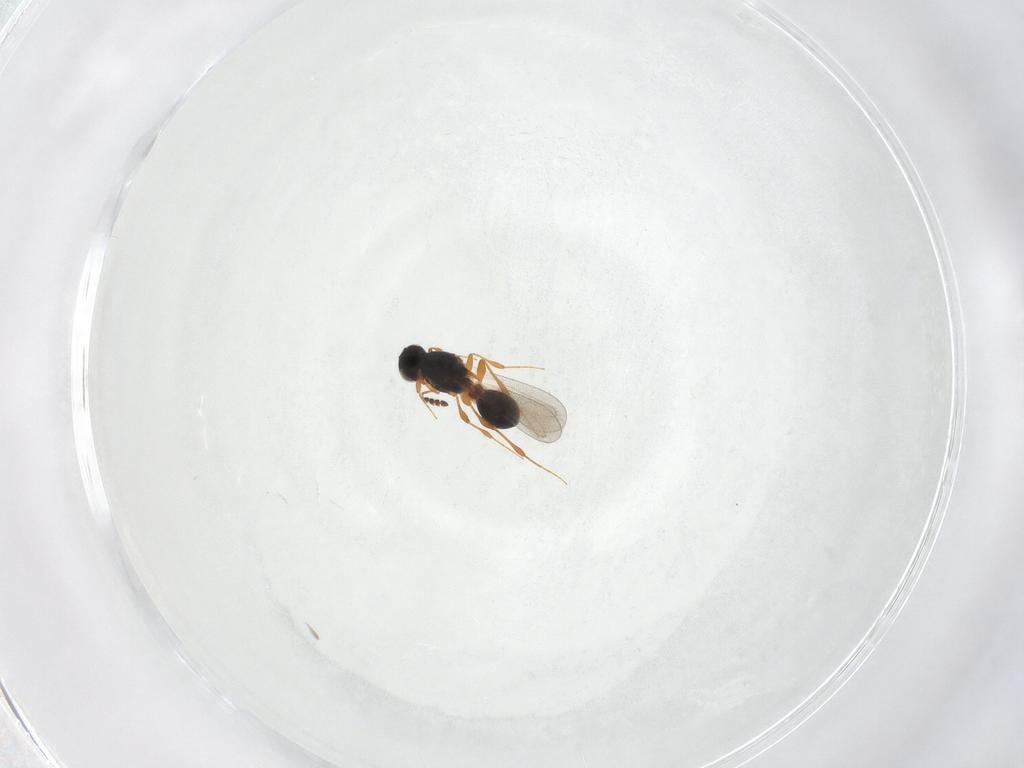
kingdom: Animalia
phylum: Arthropoda
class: Insecta
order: Hymenoptera
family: Platygastridae
